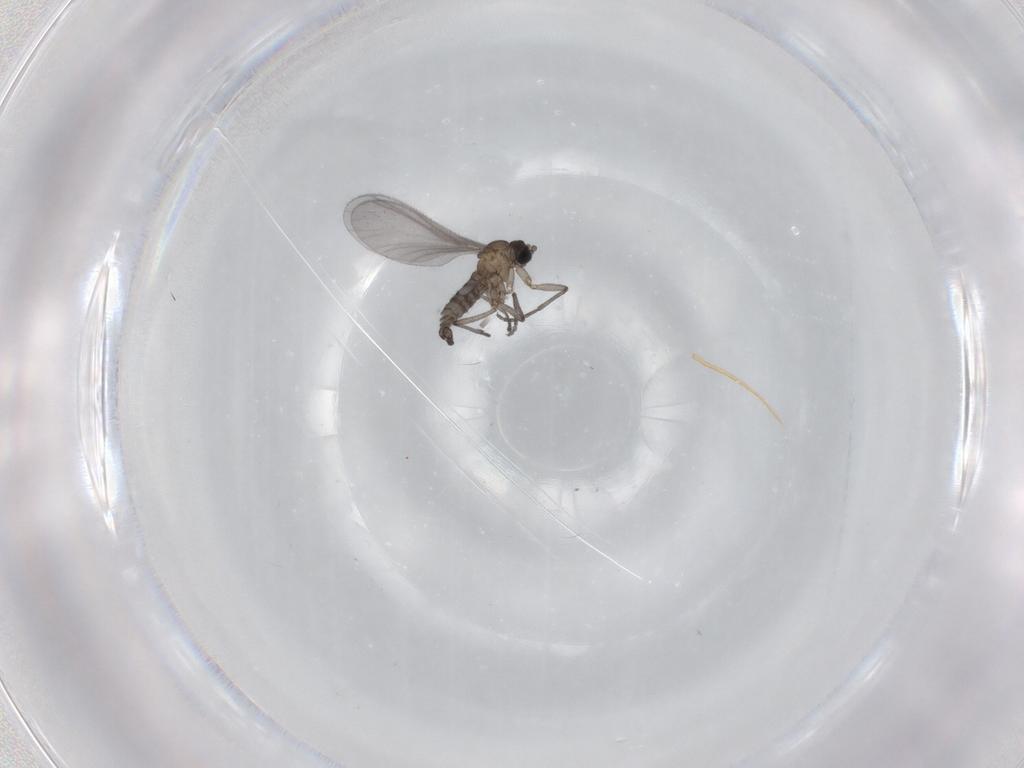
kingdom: Animalia
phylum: Arthropoda
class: Insecta
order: Diptera
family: Sciaridae
